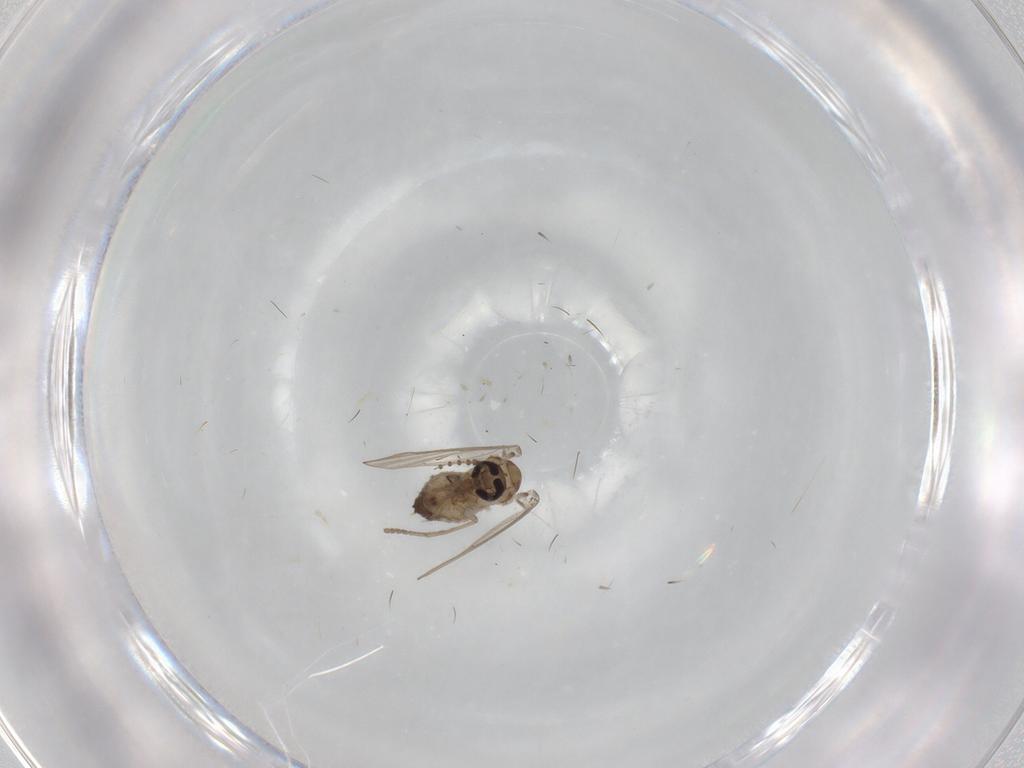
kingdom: Animalia
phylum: Arthropoda
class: Insecta
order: Diptera
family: Psychodidae
